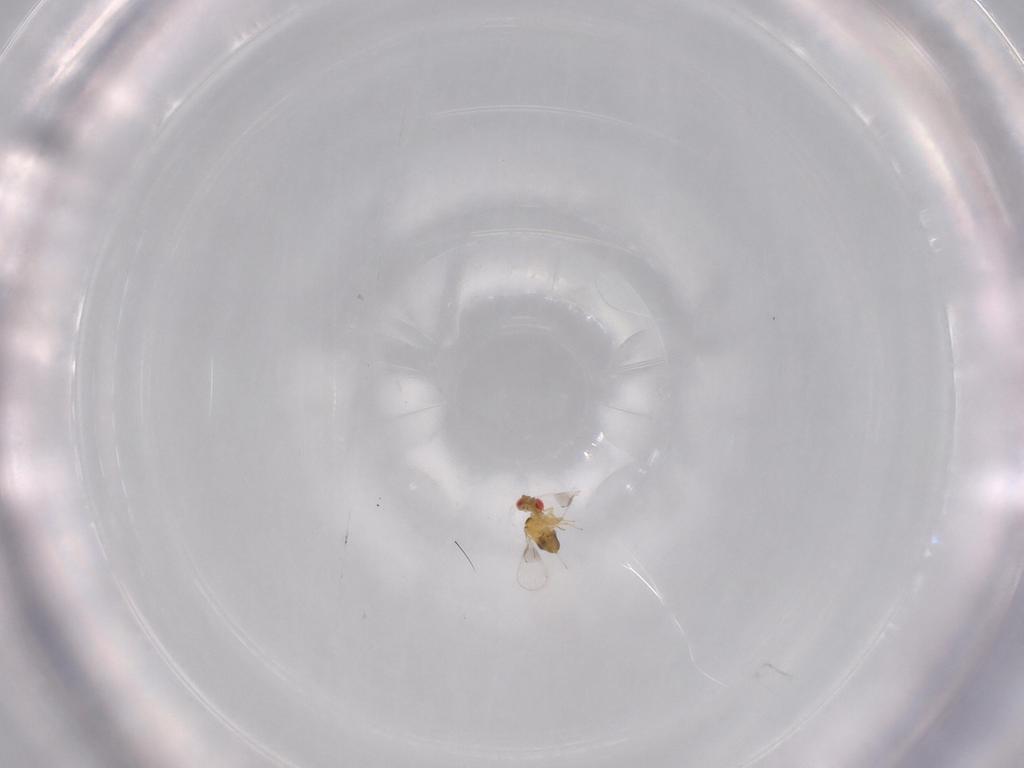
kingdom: Animalia
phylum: Arthropoda
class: Insecta
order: Hymenoptera
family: Trichogrammatidae
